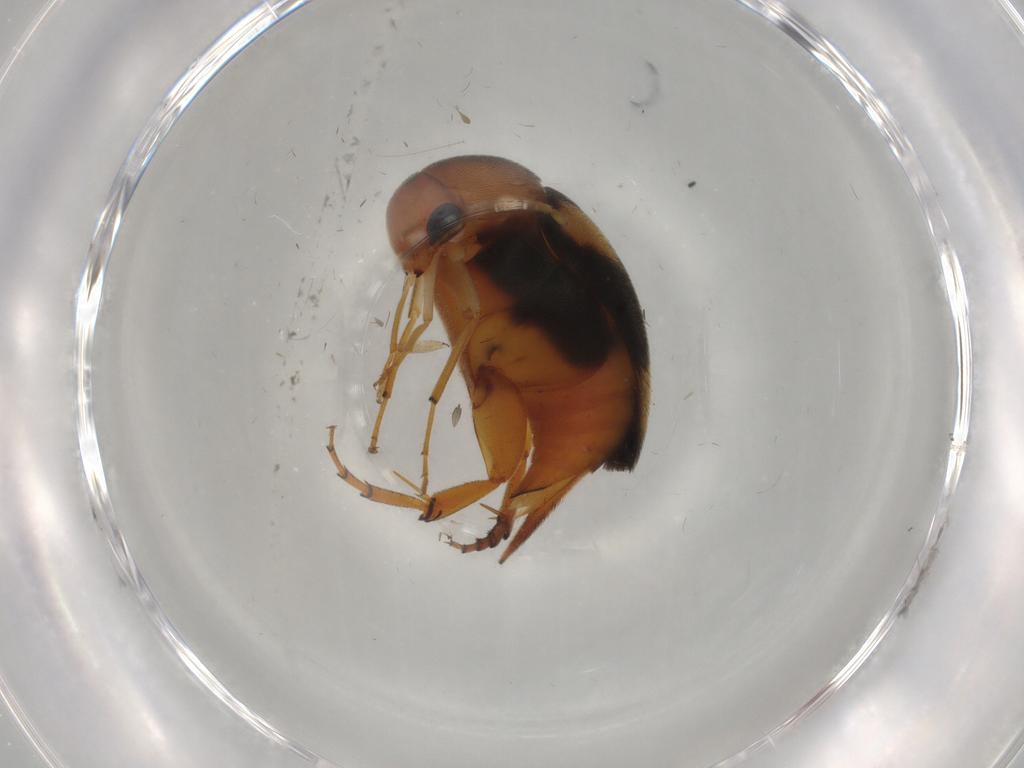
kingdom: Animalia
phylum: Arthropoda
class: Insecta
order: Coleoptera
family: Mordellidae
